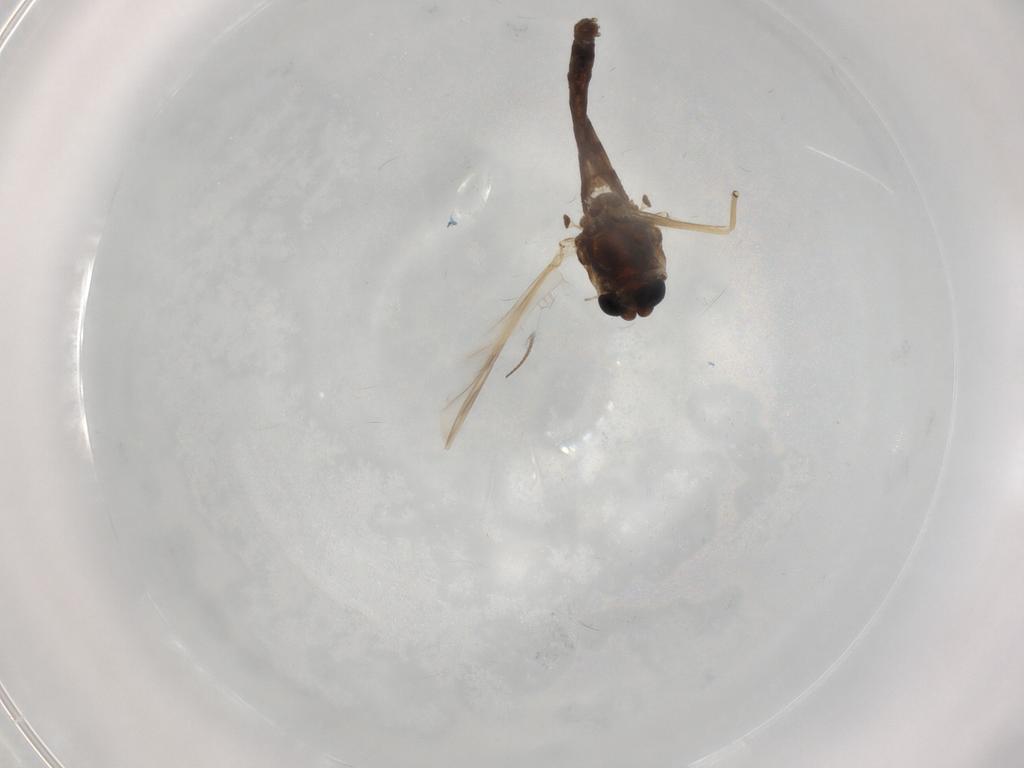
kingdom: Animalia
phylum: Arthropoda
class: Insecta
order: Diptera
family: Chironomidae
